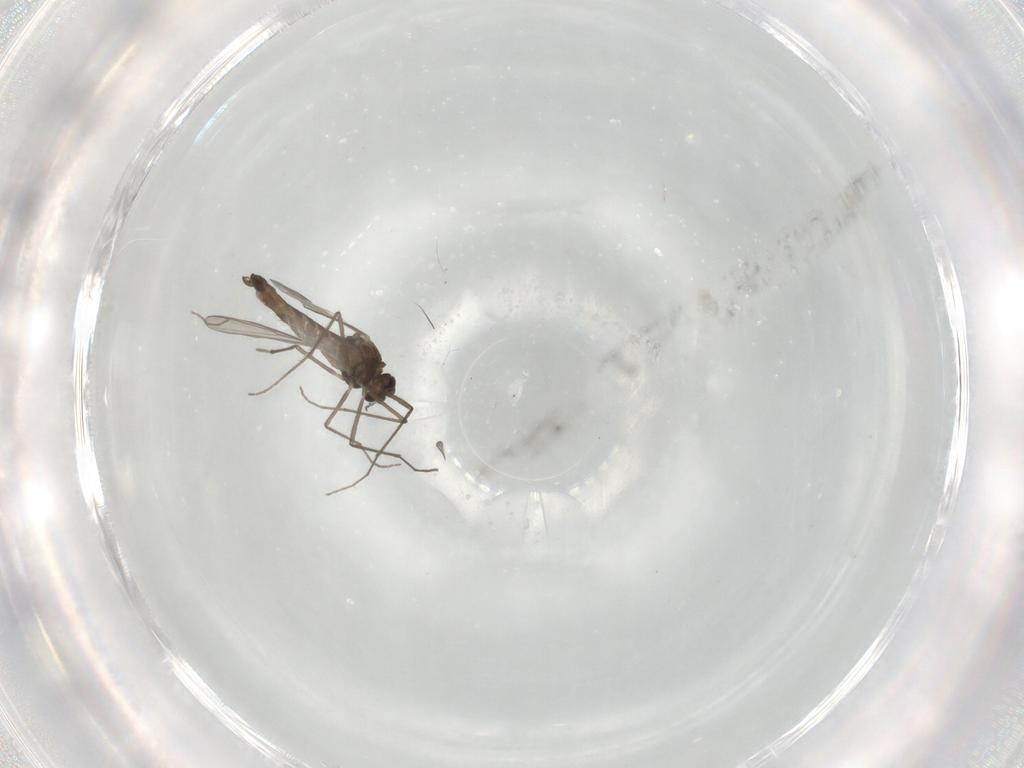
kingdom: Animalia
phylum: Arthropoda
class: Insecta
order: Diptera
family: Chironomidae
